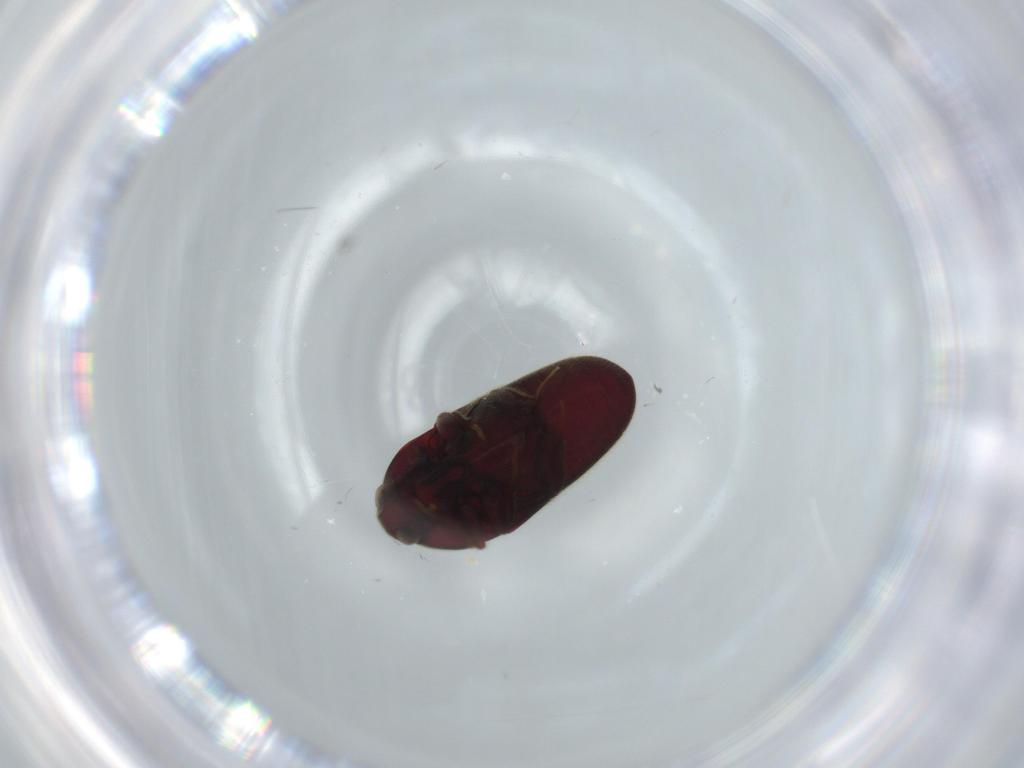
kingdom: Animalia
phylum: Arthropoda
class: Insecta
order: Coleoptera
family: Throscidae
